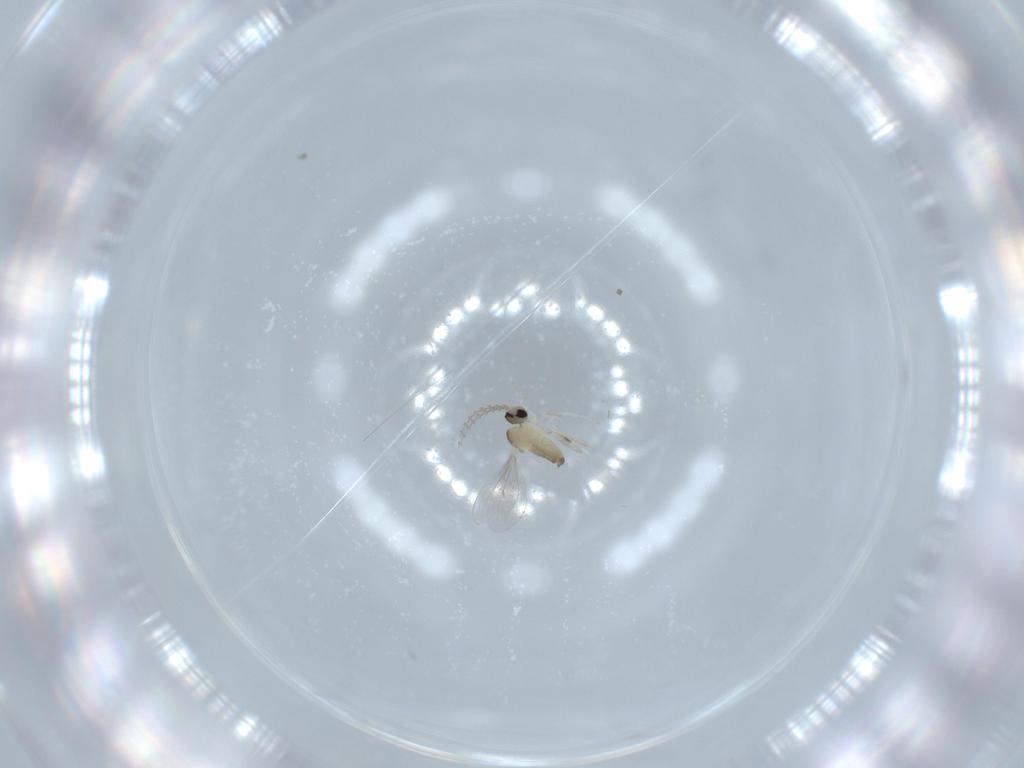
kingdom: Animalia
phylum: Arthropoda
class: Insecta
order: Diptera
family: Cecidomyiidae
